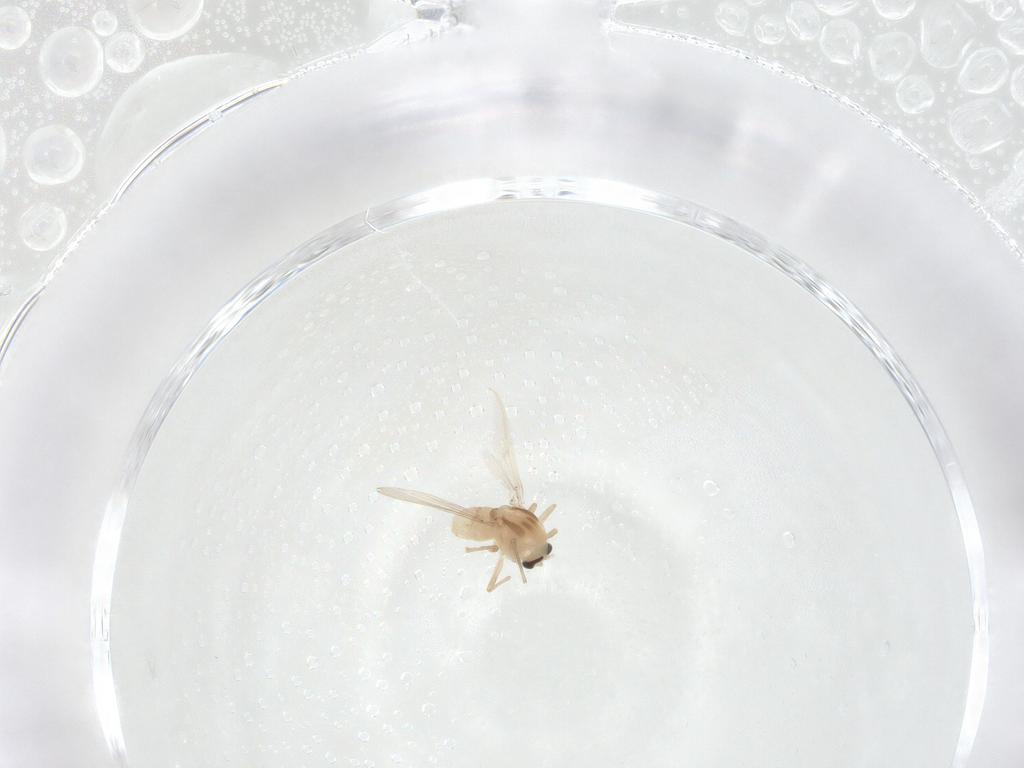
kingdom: Animalia
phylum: Arthropoda
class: Insecta
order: Diptera
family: Chironomidae
